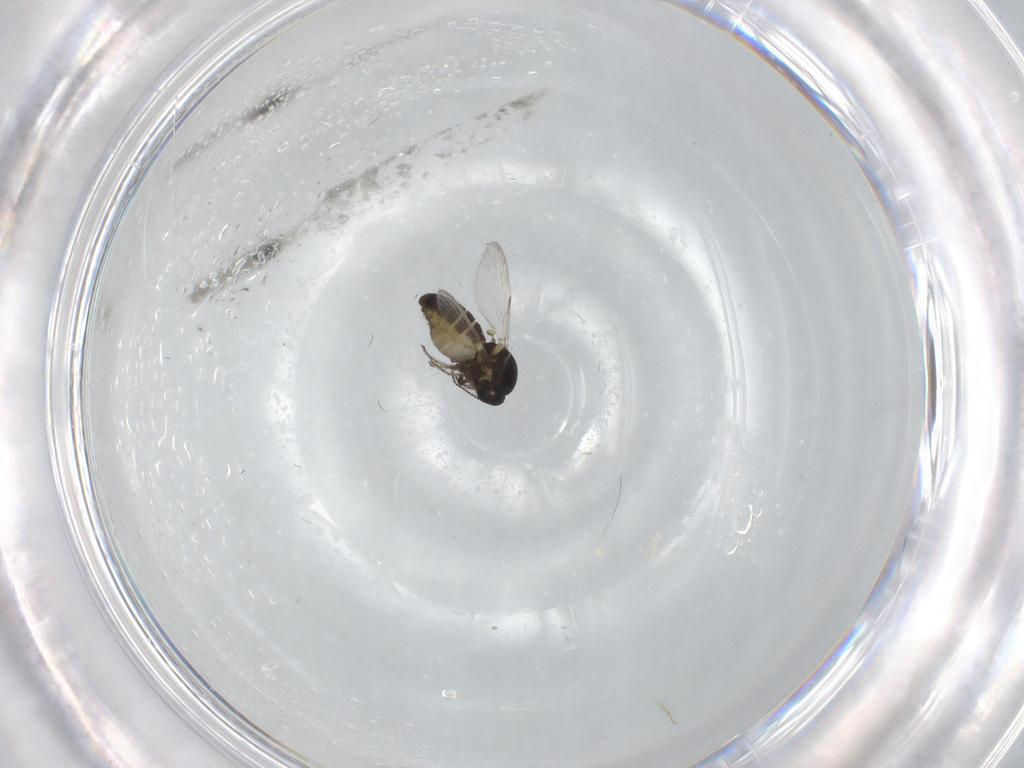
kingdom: Animalia
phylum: Arthropoda
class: Insecta
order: Diptera
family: Ceratopogonidae
